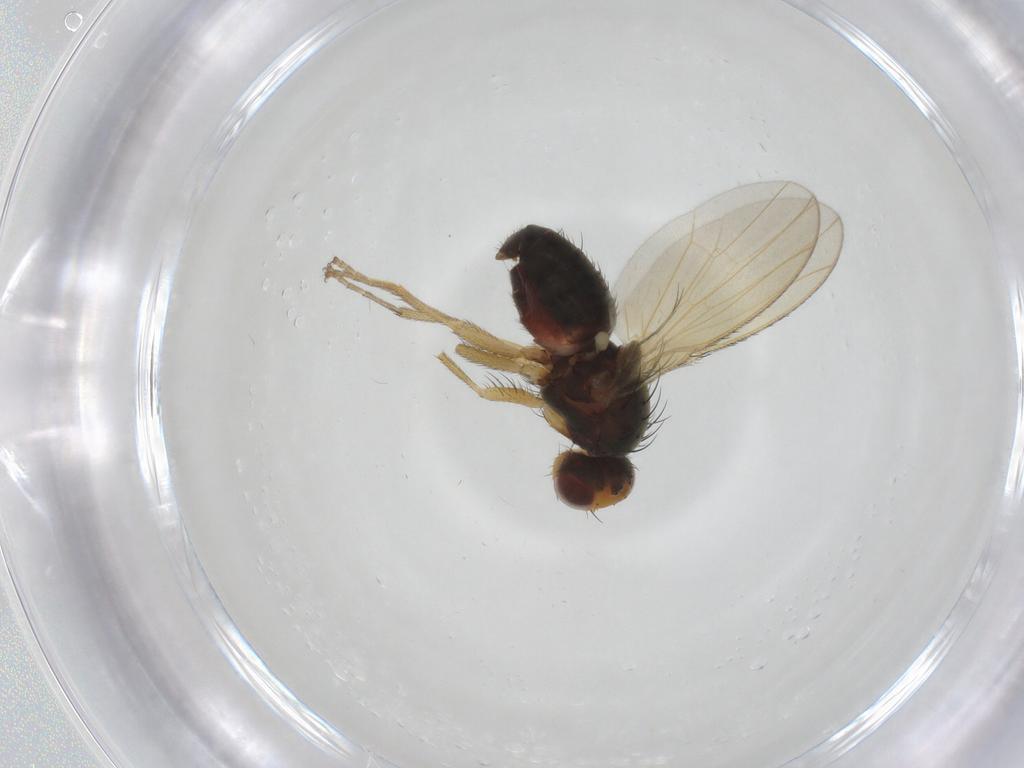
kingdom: Animalia
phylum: Arthropoda
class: Insecta
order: Diptera
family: Heleomyzidae
